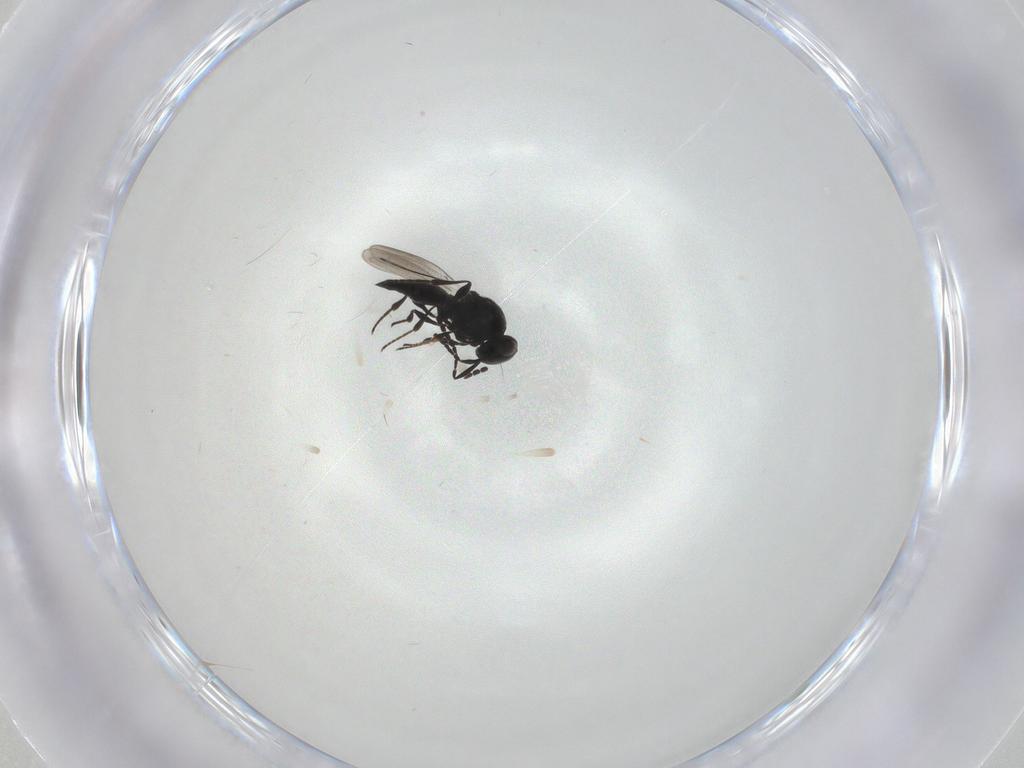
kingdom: Animalia
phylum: Arthropoda
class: Insecta
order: Hymenoptera
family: Platygastridae
